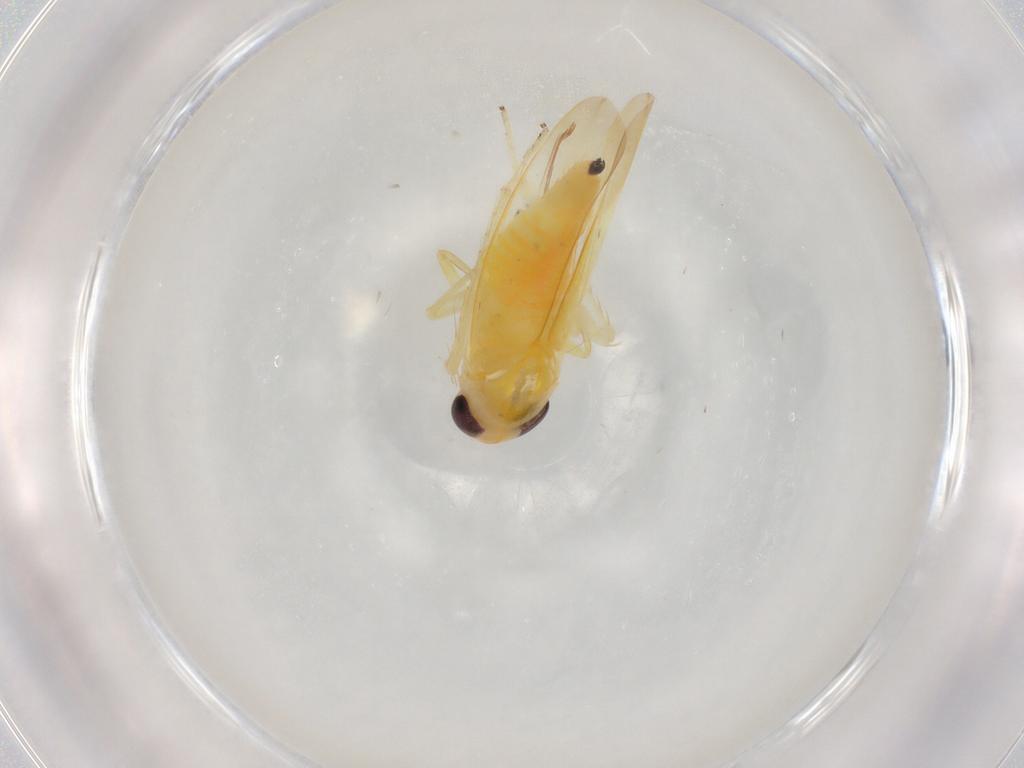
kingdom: Animalia
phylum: Arthropoda
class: Insecta
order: Hemiptera
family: Cicadellidae
